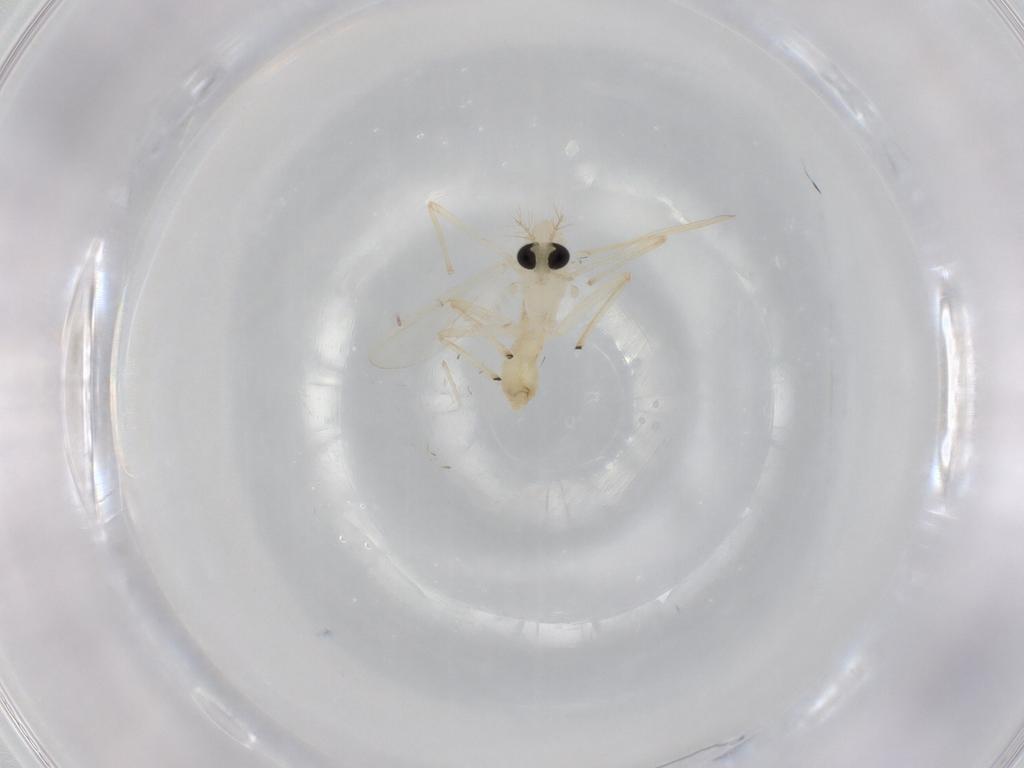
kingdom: Animalia
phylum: Arthropoda
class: Insecta
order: Diptera
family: Chironomidae
